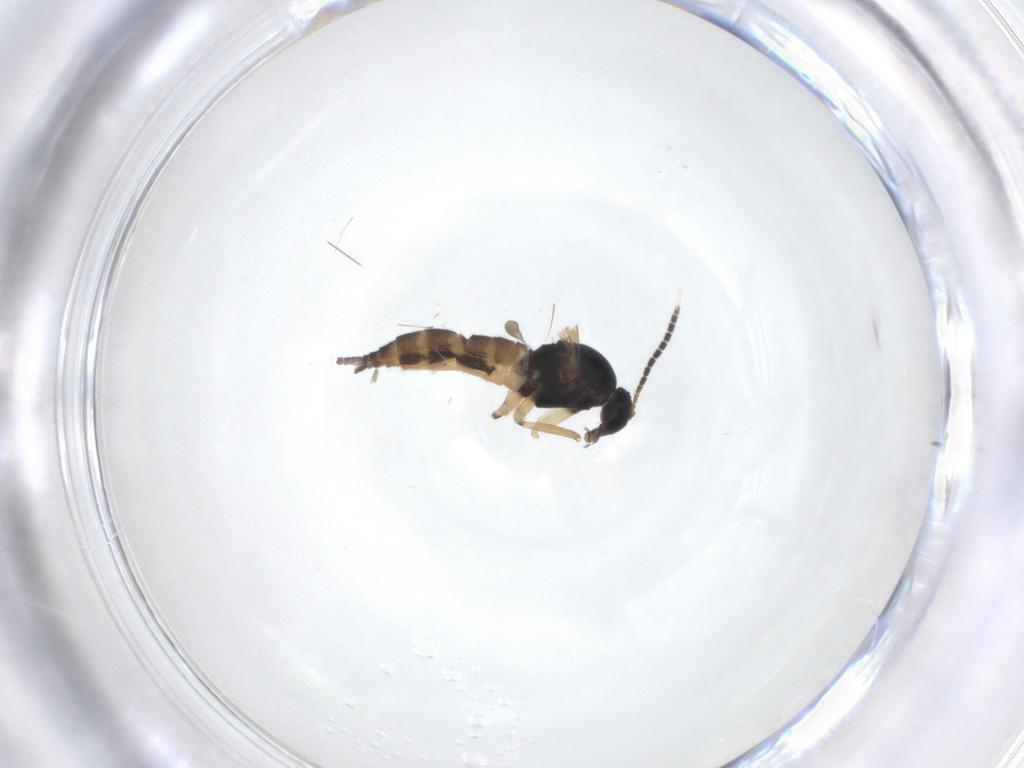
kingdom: Animalia
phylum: Arthropoda
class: Insecta
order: Diptera
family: Sciaridae
